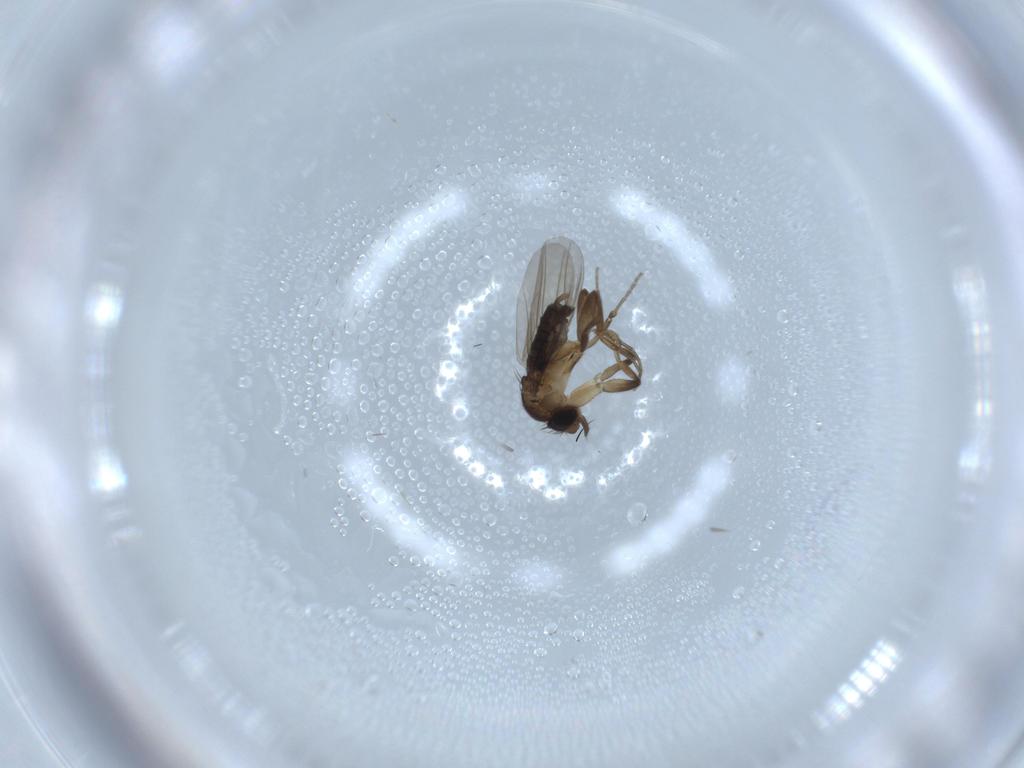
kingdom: Animalia
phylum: Arthropoda
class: Insecta
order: Diptera
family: Phoridae
